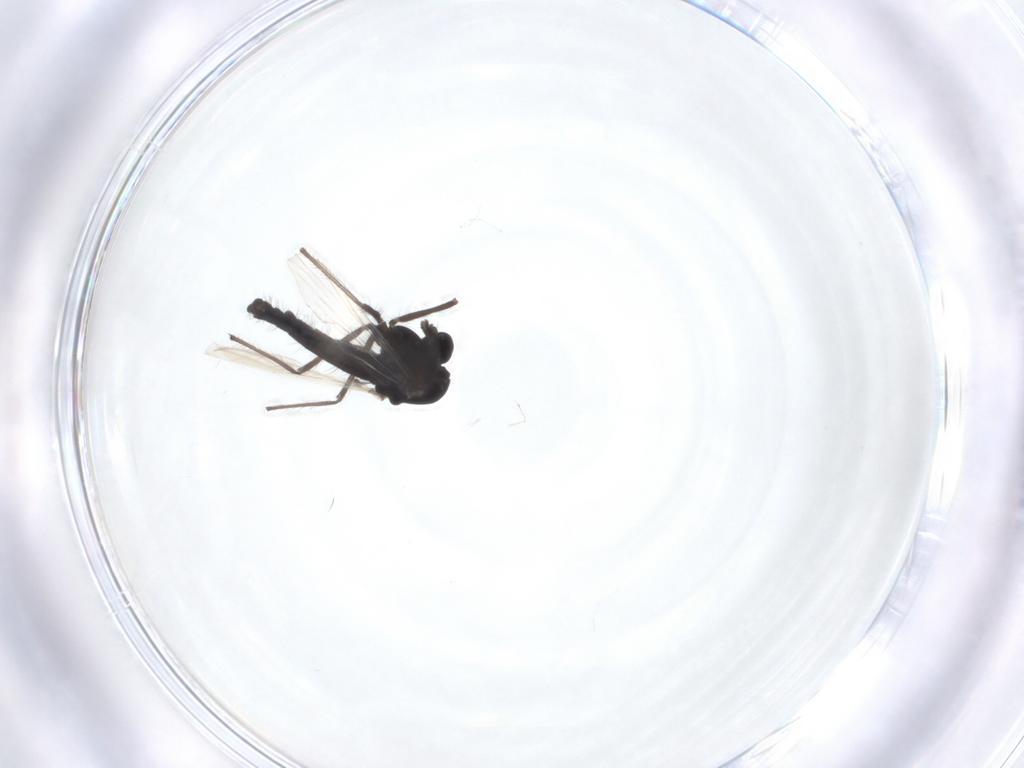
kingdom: Animalia
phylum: Arthropoda
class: Insecta
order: Diptera
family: Chironomidae
